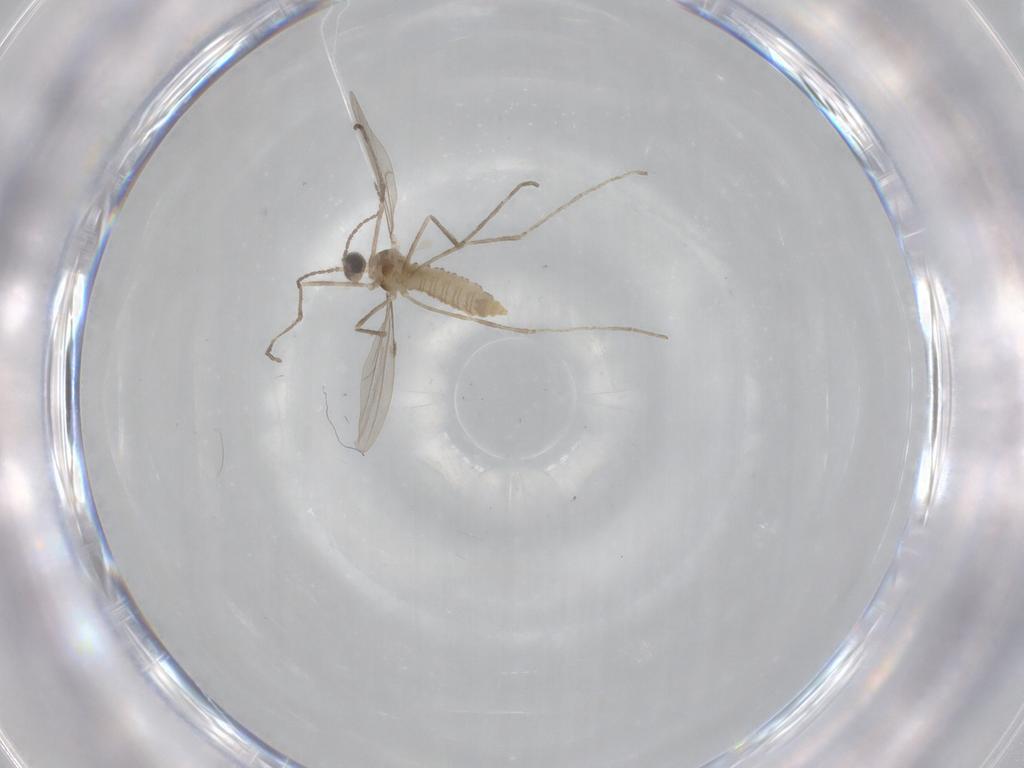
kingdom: Animalia
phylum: Arthropoda
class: Insecta
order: Diptera
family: Cecidomyiidae
